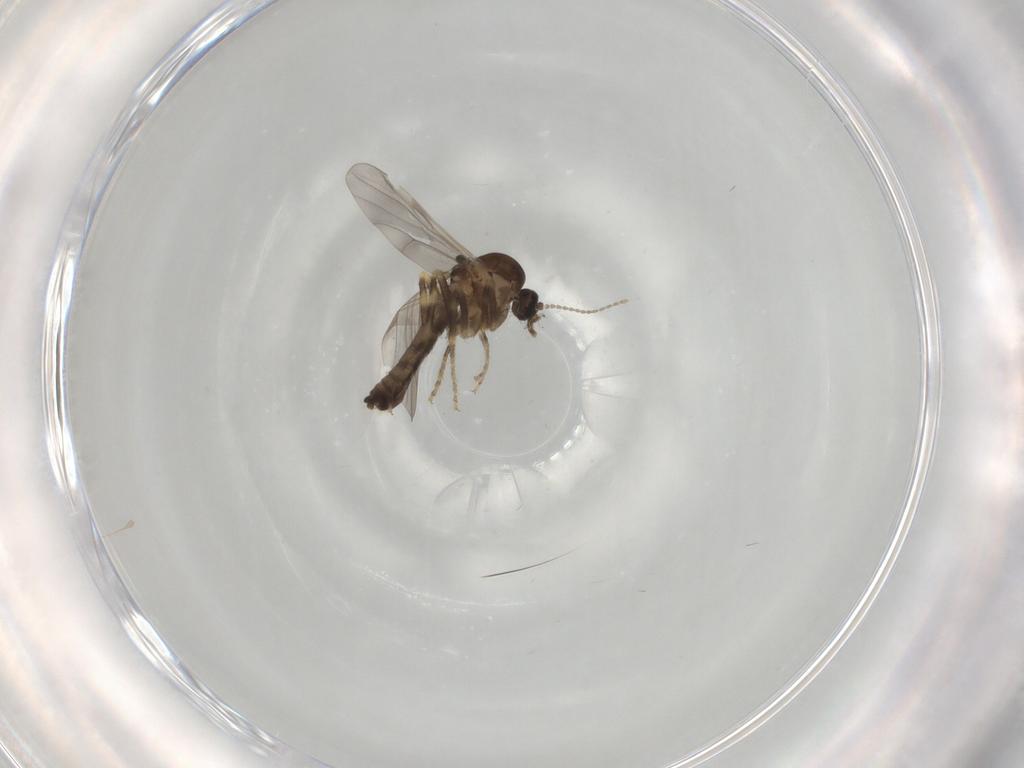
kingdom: Animalia
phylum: Arthropoda
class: Insecta
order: Diptera
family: Ceratopogonidae
